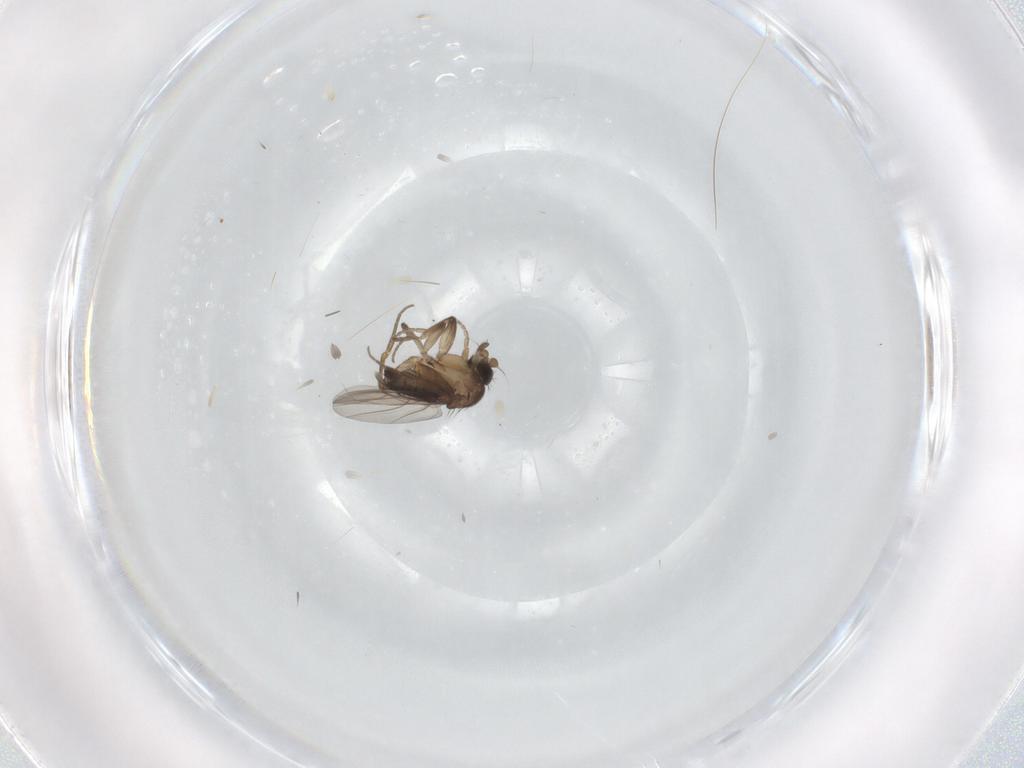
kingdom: Animalia
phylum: Arthropoda
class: Insecta
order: Diptera
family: Phoridae
